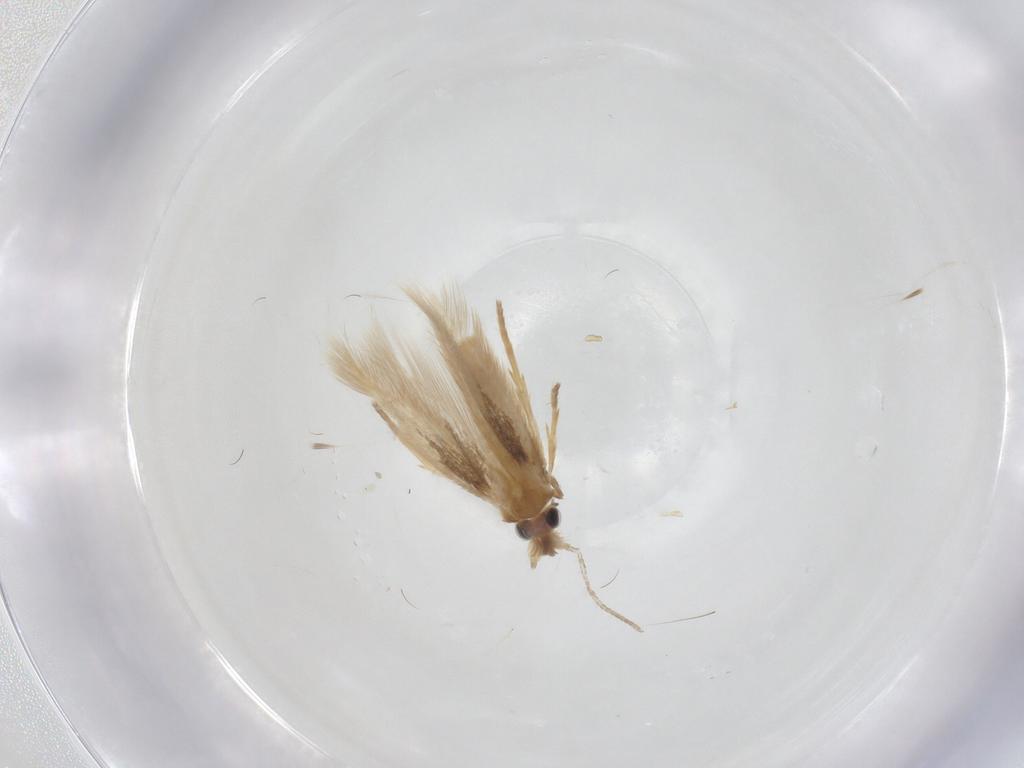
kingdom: Animalia
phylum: Arthropoda
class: Insecta
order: Lepidoptera
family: Nepticulidae
